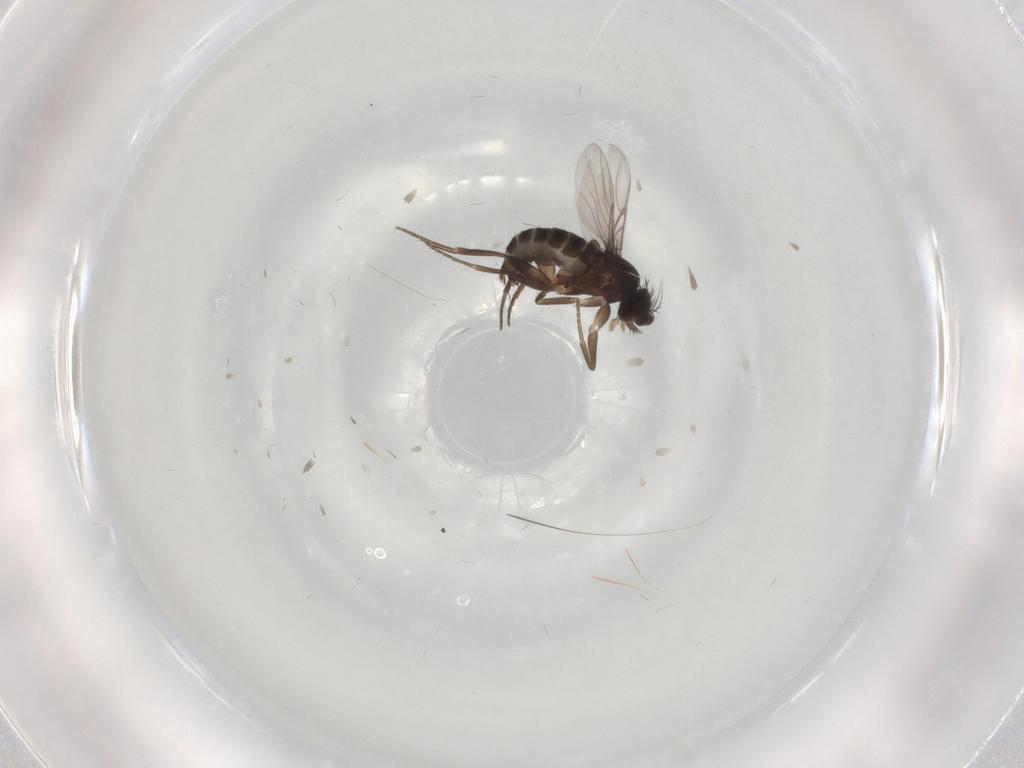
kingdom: Animalia
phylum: Arthropoda
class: Insecta
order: Diptera
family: Phoridae
